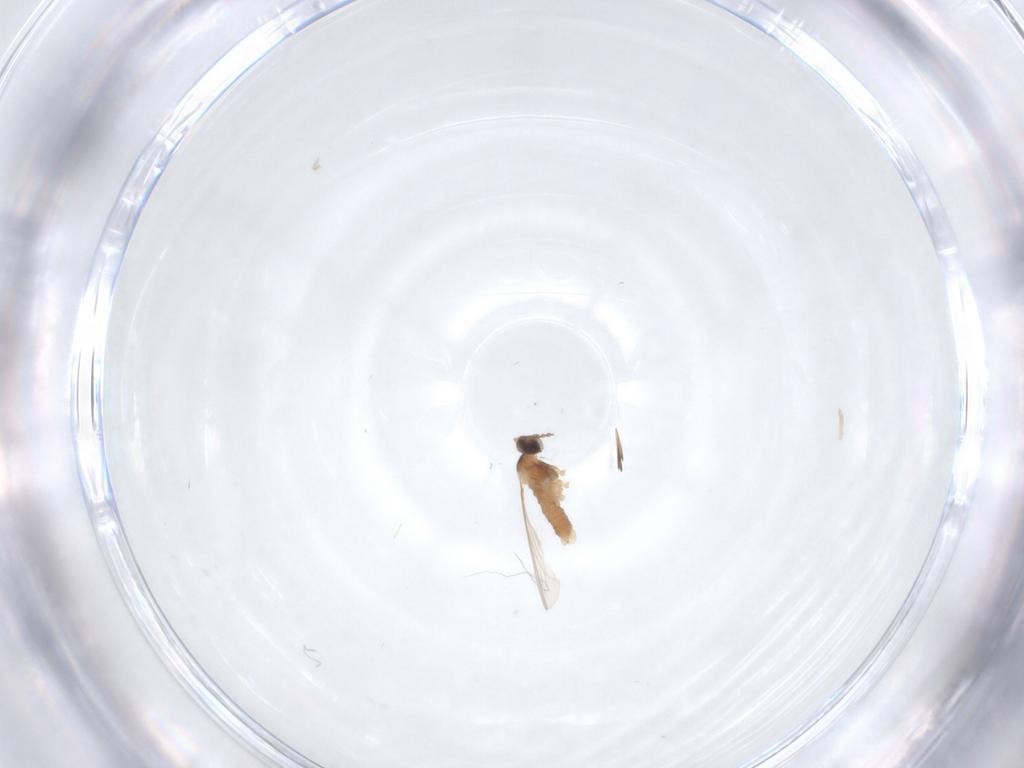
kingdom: Animalia
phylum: Arthropoda
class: Insecta
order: Diptera
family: Cecidomyiidae
